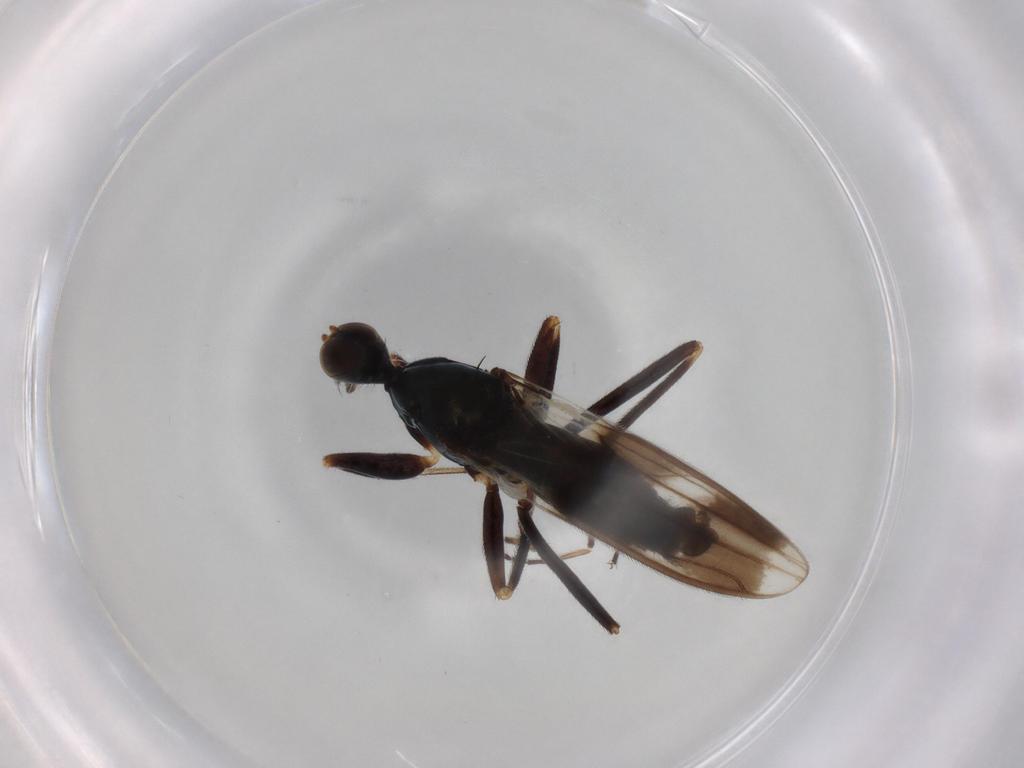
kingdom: Animalia
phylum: Arthropoda
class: Insecta
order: Diptera
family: Hybotidae
